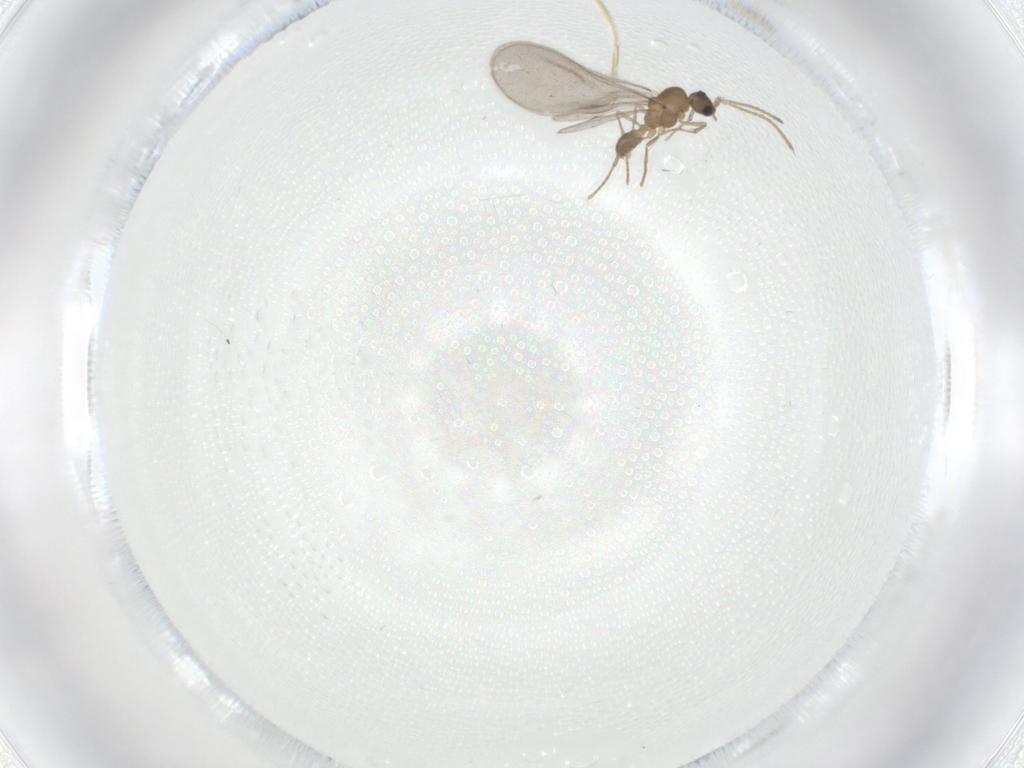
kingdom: Animalia
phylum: Arthropoda
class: Insecta
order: Hymenoptera
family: Formicidae
